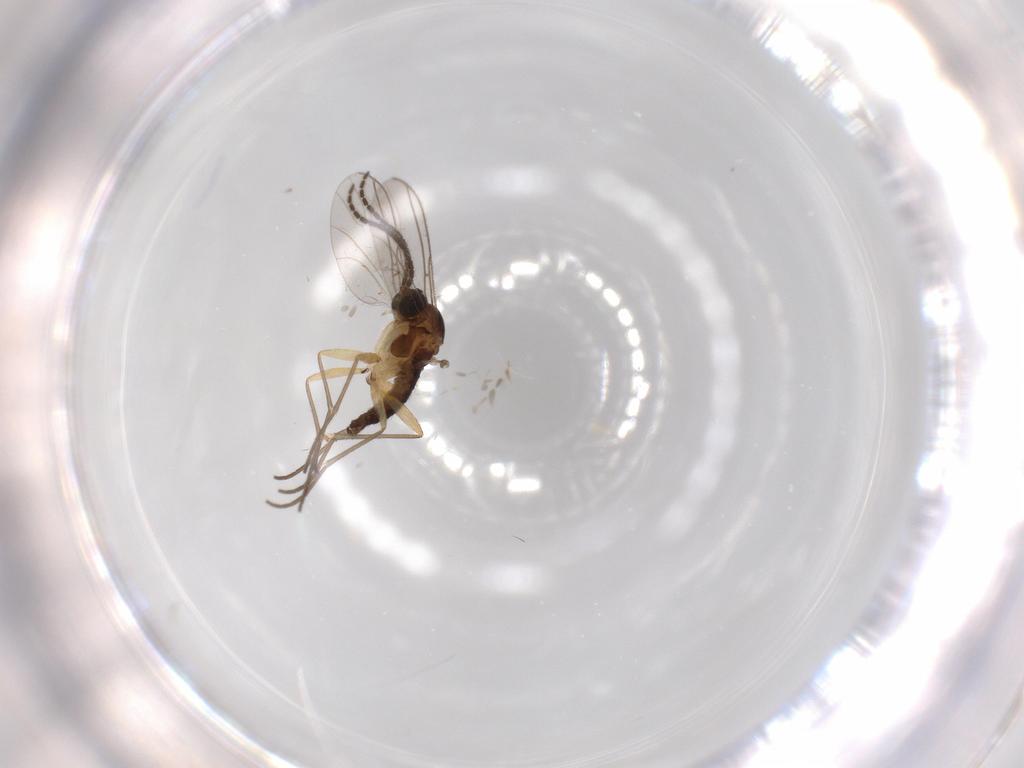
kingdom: Animalia
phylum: Arthropoda
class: Insecta
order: Diptera
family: Sciaridae
